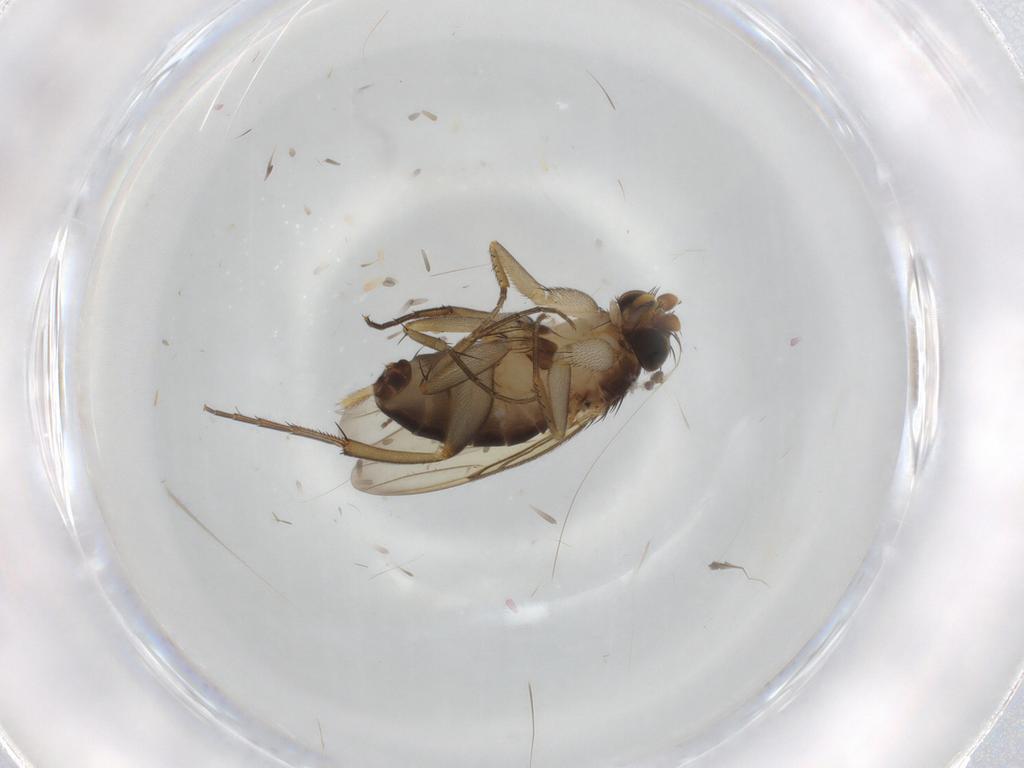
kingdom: Animalia
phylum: Arthropoda
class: Insecta
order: Diptera
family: Phoridae
